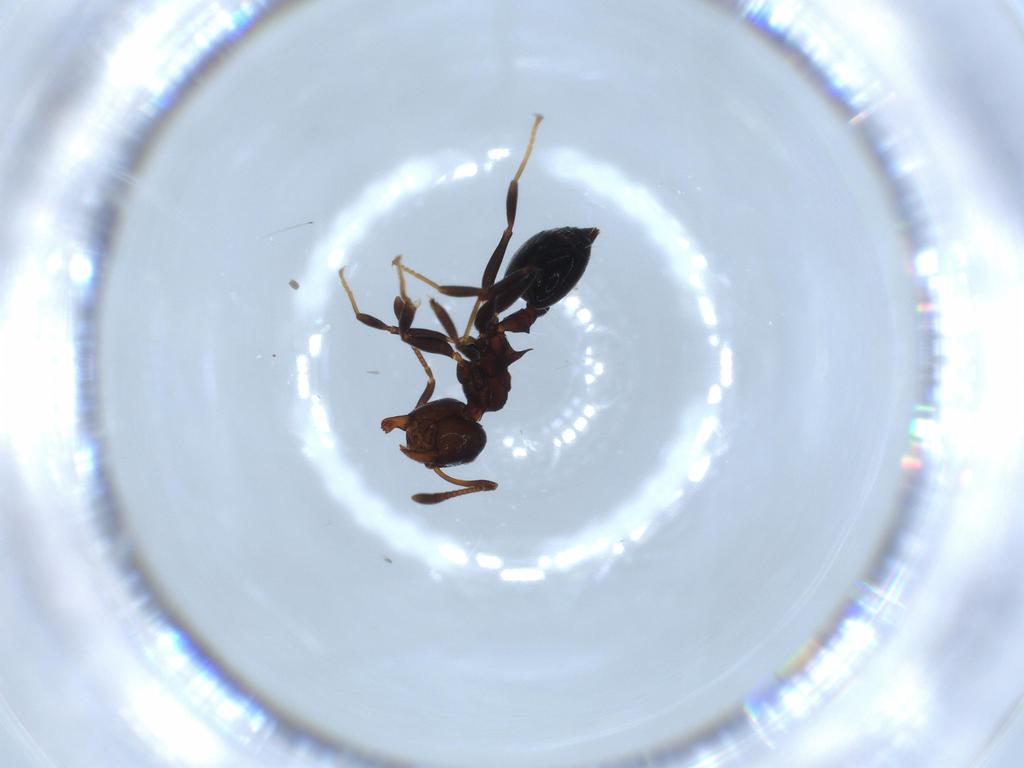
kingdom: Animalia
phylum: Arthropoda
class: Insecta
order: Hymenoptera
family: Formicidae
